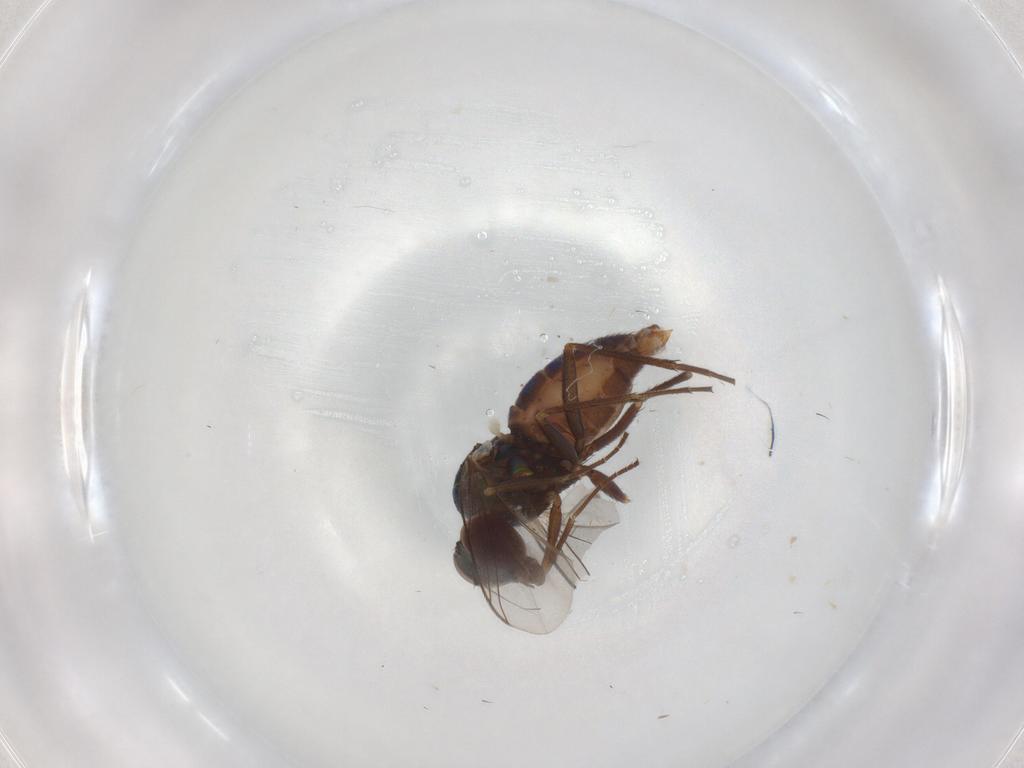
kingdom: Animalia
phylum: Arthropoda
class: Insecta
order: Diptera
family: Dolichopodidae
